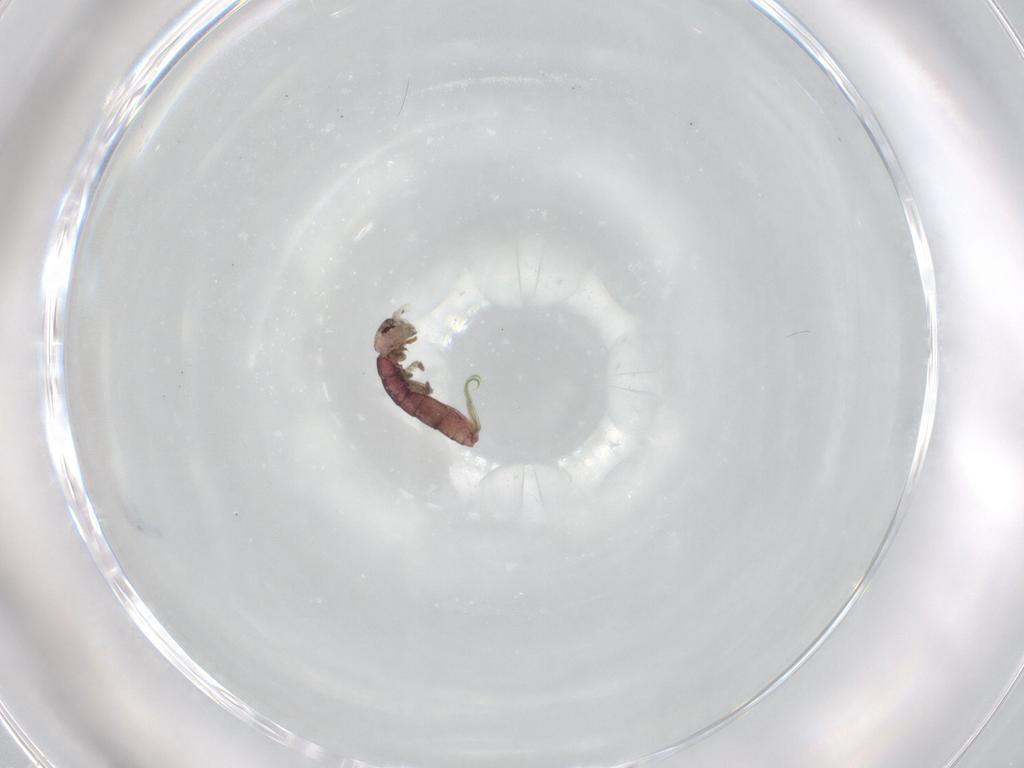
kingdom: Animalia
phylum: Arthropoda
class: Collembola
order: Entomobryomorpha
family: Isotomidae
